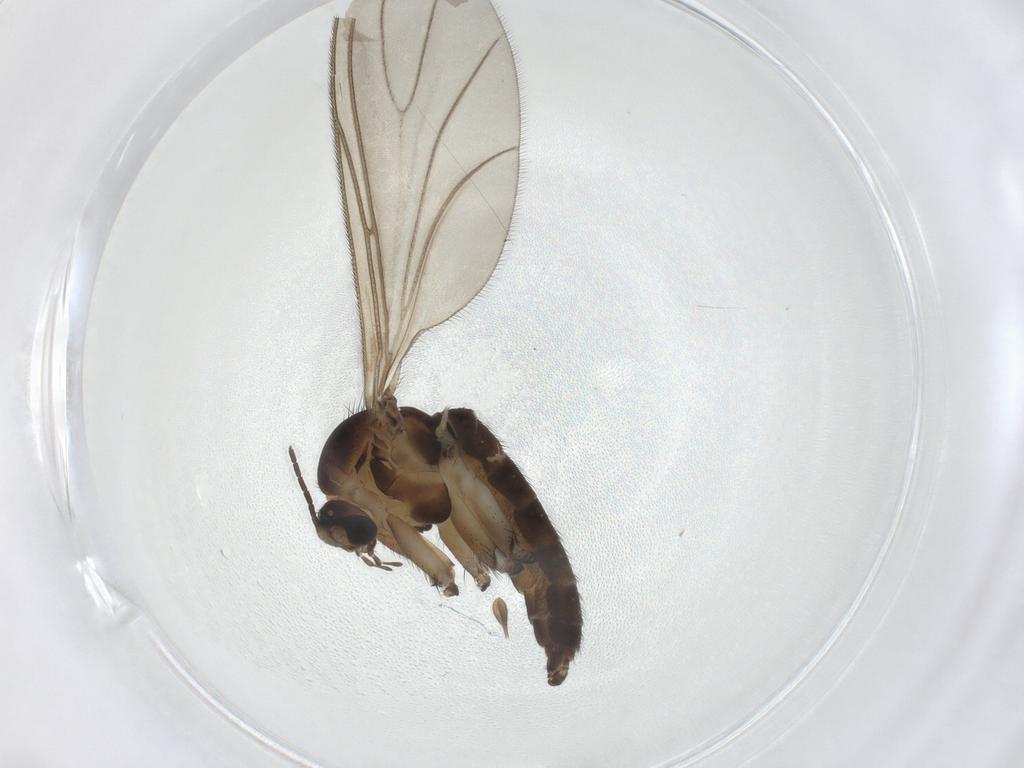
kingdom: Animalia
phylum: Arthropoda
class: Insecta
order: Diptera
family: Sciaridae
